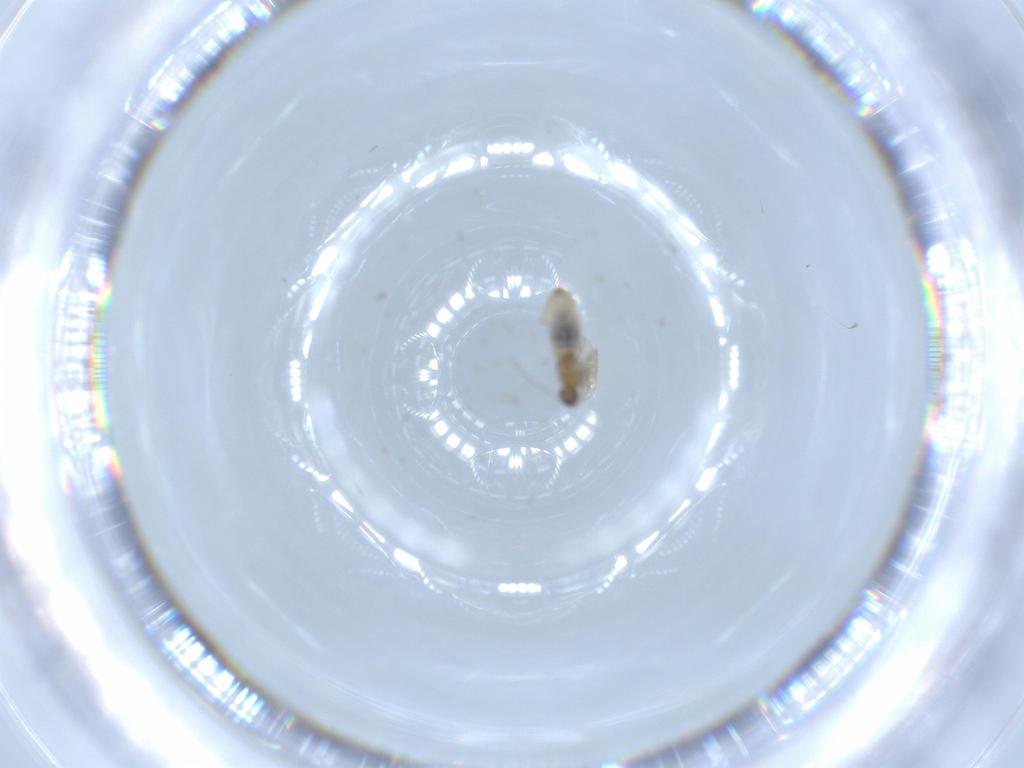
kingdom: Animalia
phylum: Arthropoda
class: Insecta
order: Diptera
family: Cecidomyiidae
